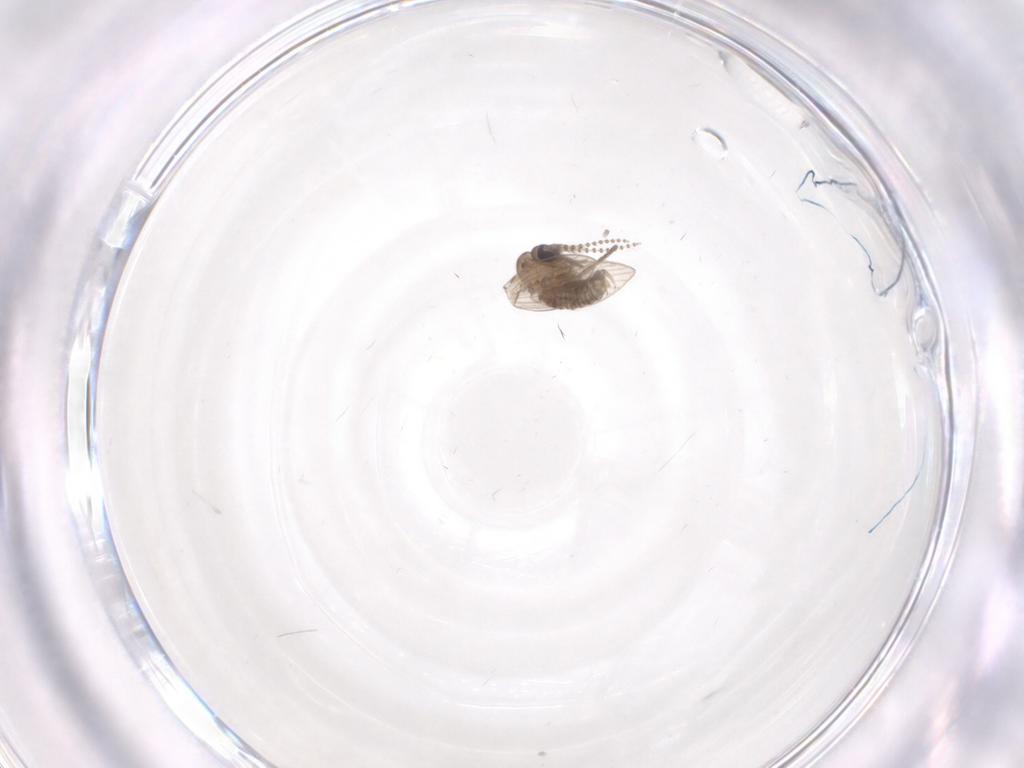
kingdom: Animalia
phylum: Arthropoda
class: Insecta
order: Diptera
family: Psychodidae
